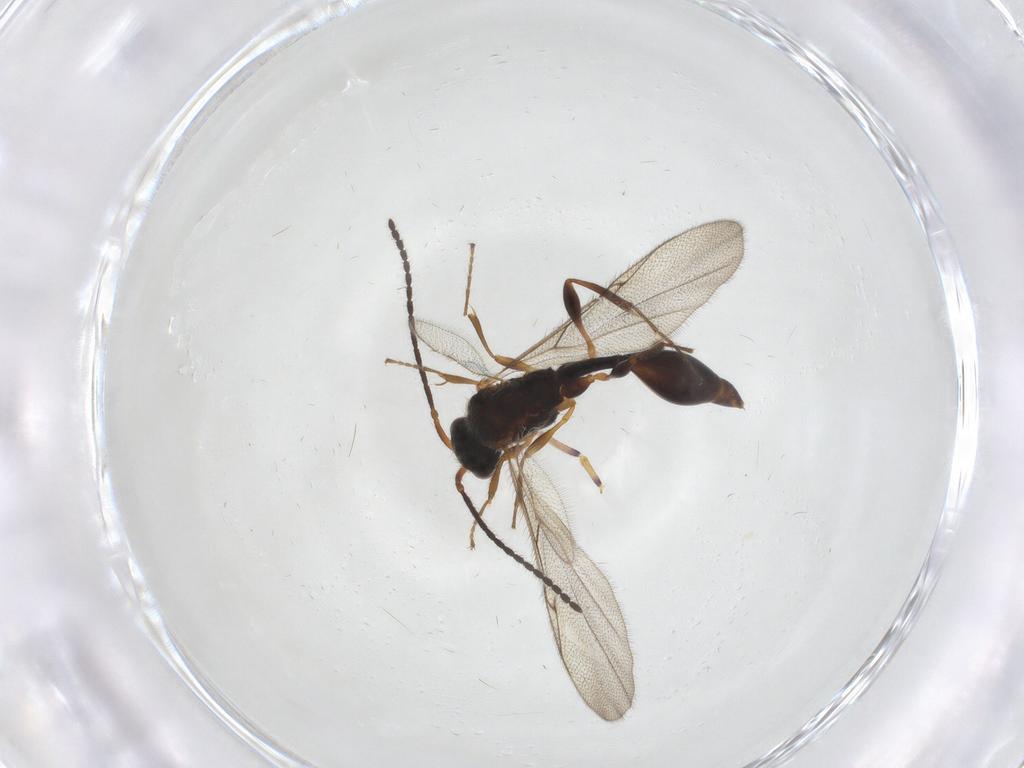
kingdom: Animalia
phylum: Arthropoda
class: Insecta
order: Hymenoptera
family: Diapriidae
